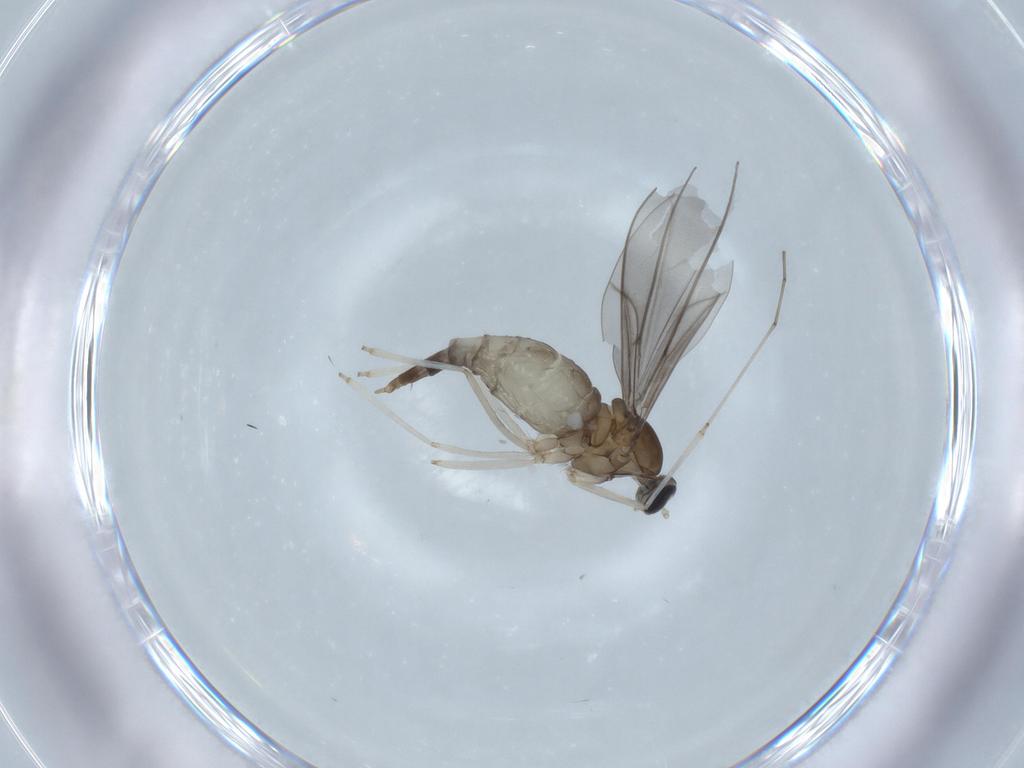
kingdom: Animalia
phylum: Arthropoda
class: Insecta
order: Diptera
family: Cecidomyiidae
